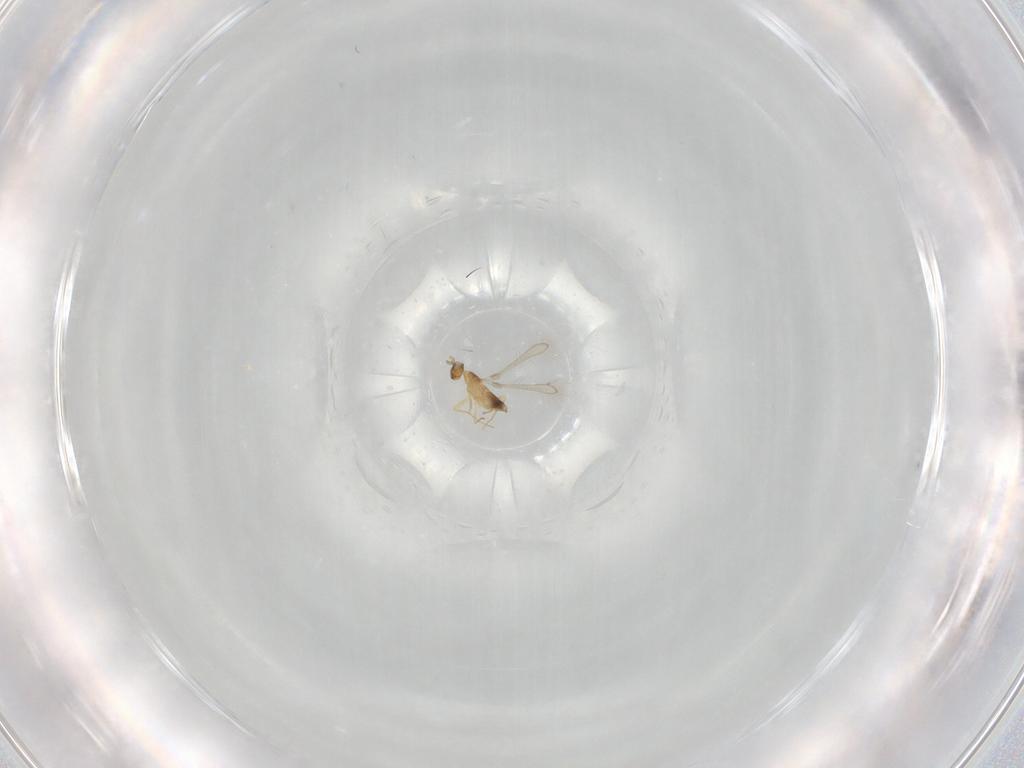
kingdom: Animalia
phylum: Arthropoda
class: Insecta
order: Hymenoptera
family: Mymaridae
